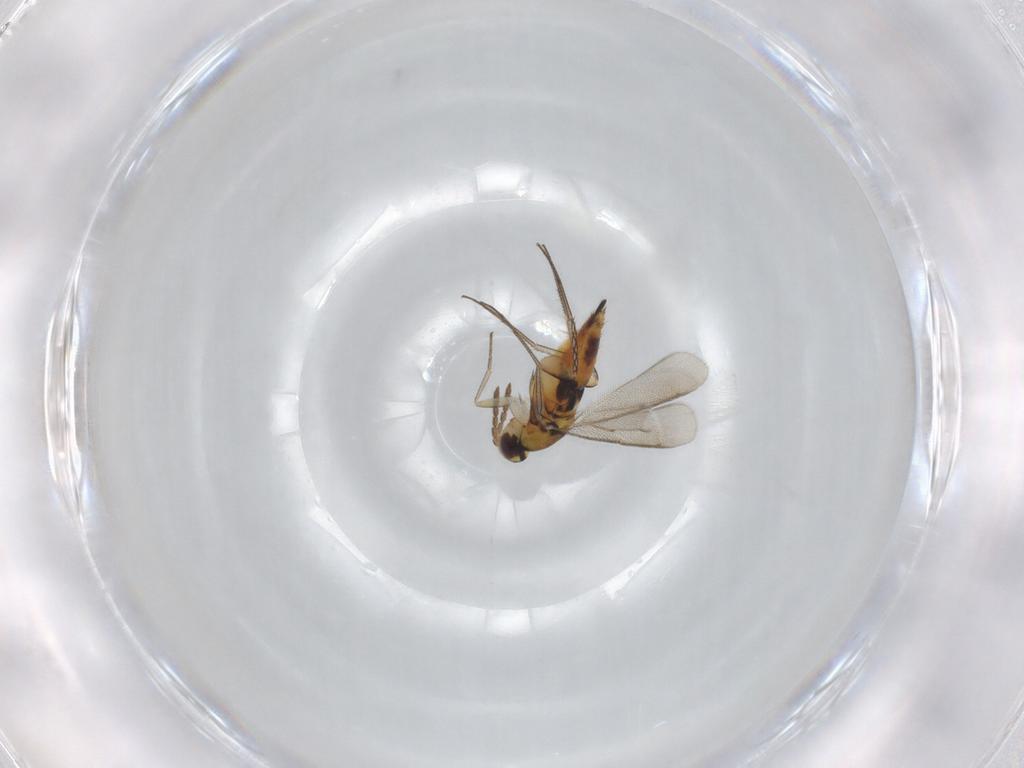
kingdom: Animalia
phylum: Arthropoda
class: Insecta
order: Hymenoptera
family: Eulophidae
